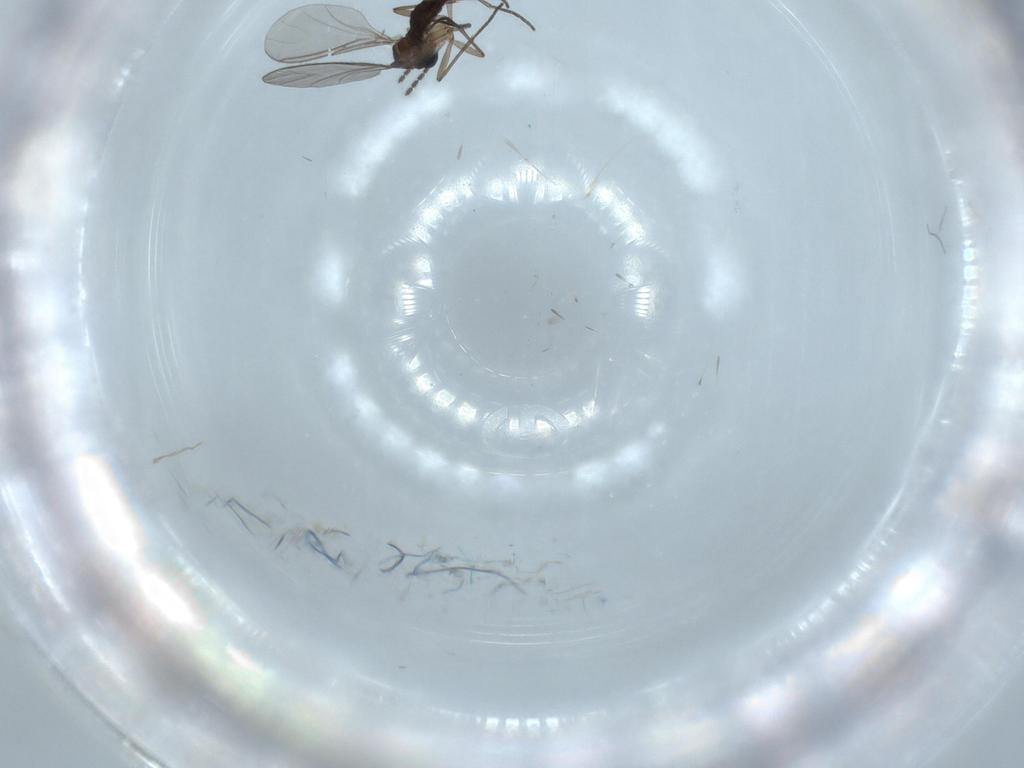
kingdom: Animalia
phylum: Arthropoda
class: Insecta
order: Diptera
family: Sciaridae
